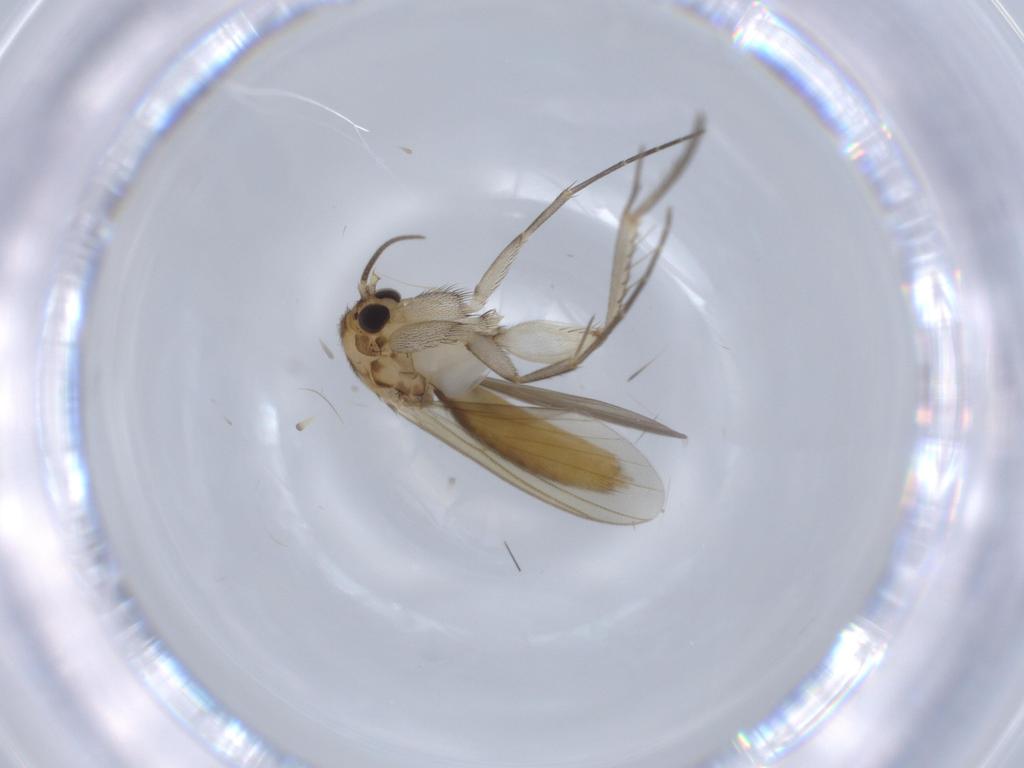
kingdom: Animalia
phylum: Arthropoda
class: Insecta
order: Diptera
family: Mycetophilidae
